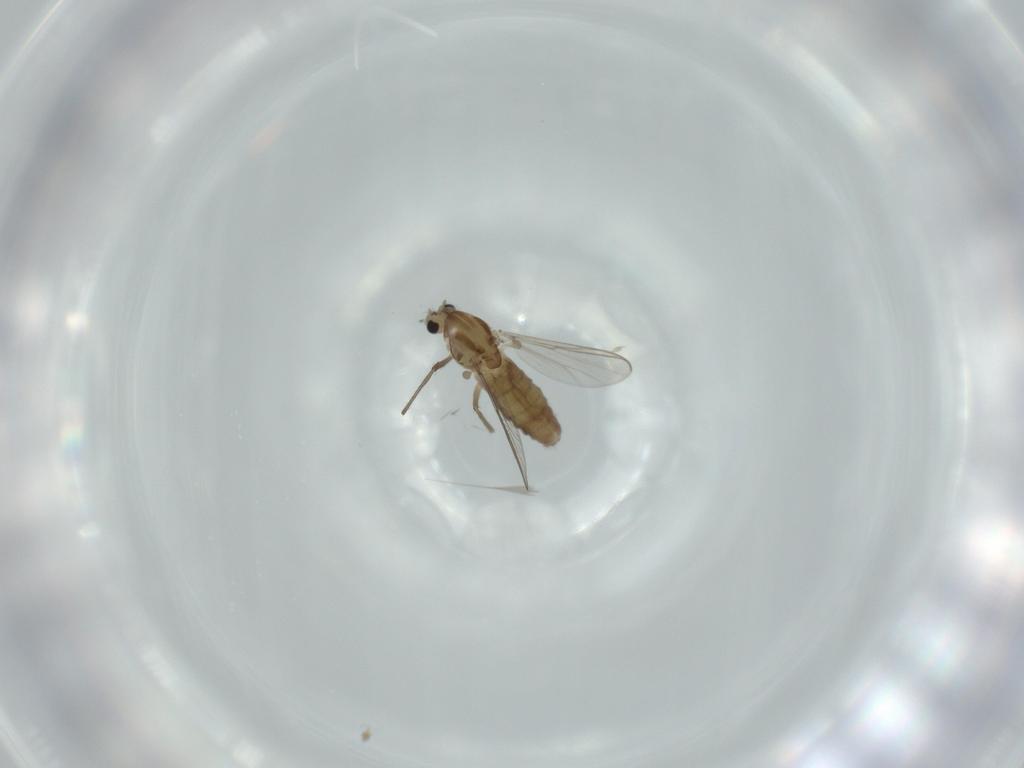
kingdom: Animalia
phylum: Arthropoda
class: Insecta
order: Diptera
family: Chironomidae
